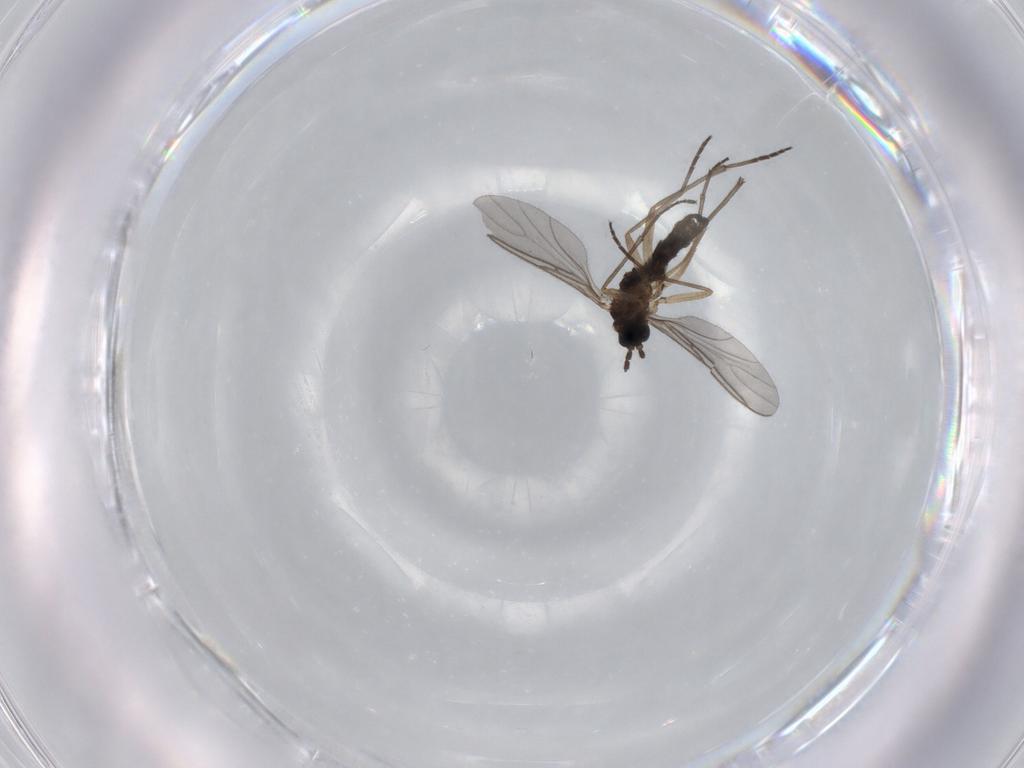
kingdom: Animalia
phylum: Arthropoda
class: Insecta
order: Diptera
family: Sciaridae
